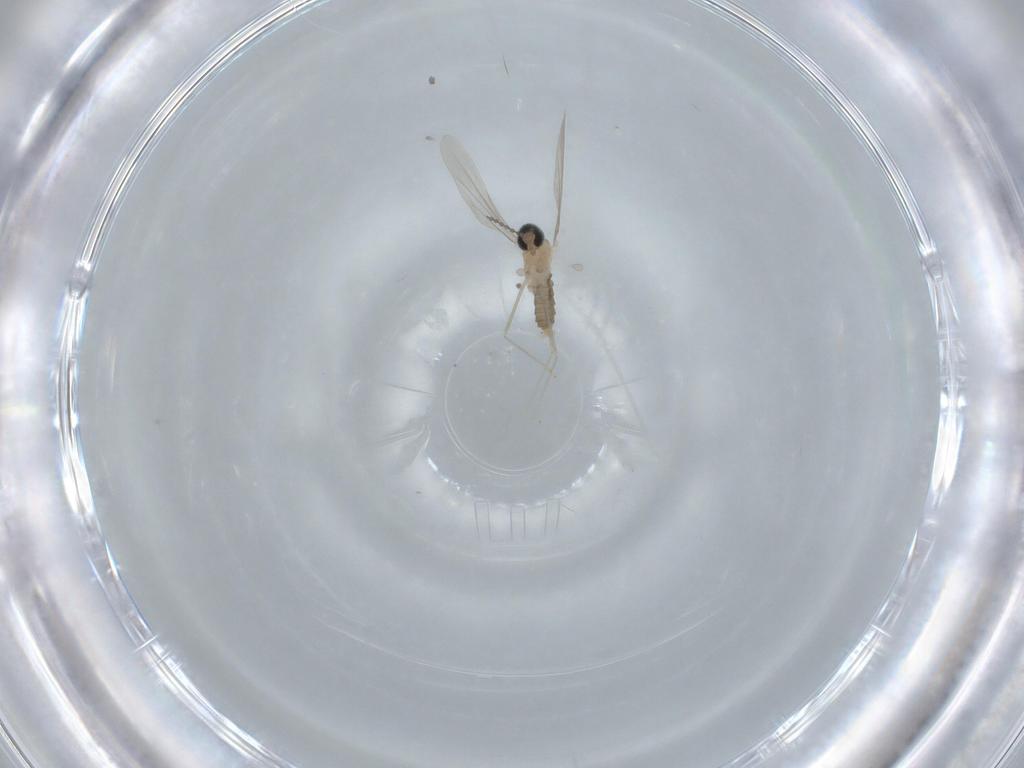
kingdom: Animalia
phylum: Arthropoda
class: Insecta
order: Diptera
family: Cecidomyiidae
